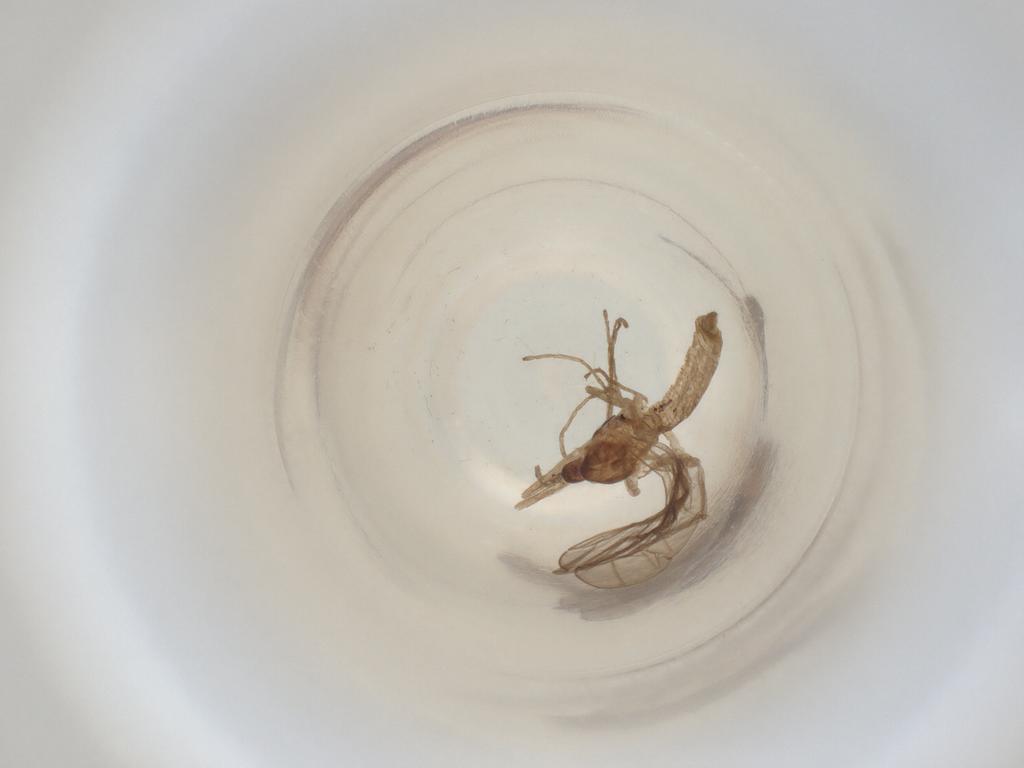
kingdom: Animalia
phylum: Arthropoda
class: Insecta
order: Diptera
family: Cecidomyiidae
